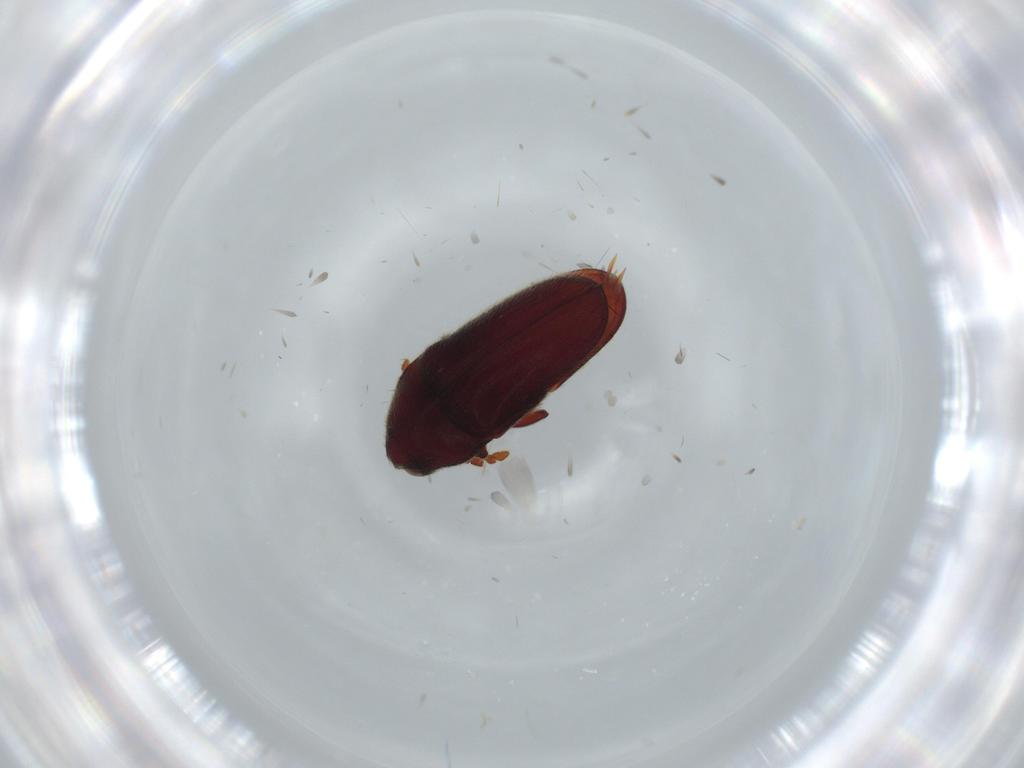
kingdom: Animalia
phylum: Arthropoda
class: Insecta
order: Coleoptera
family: Throscidae
